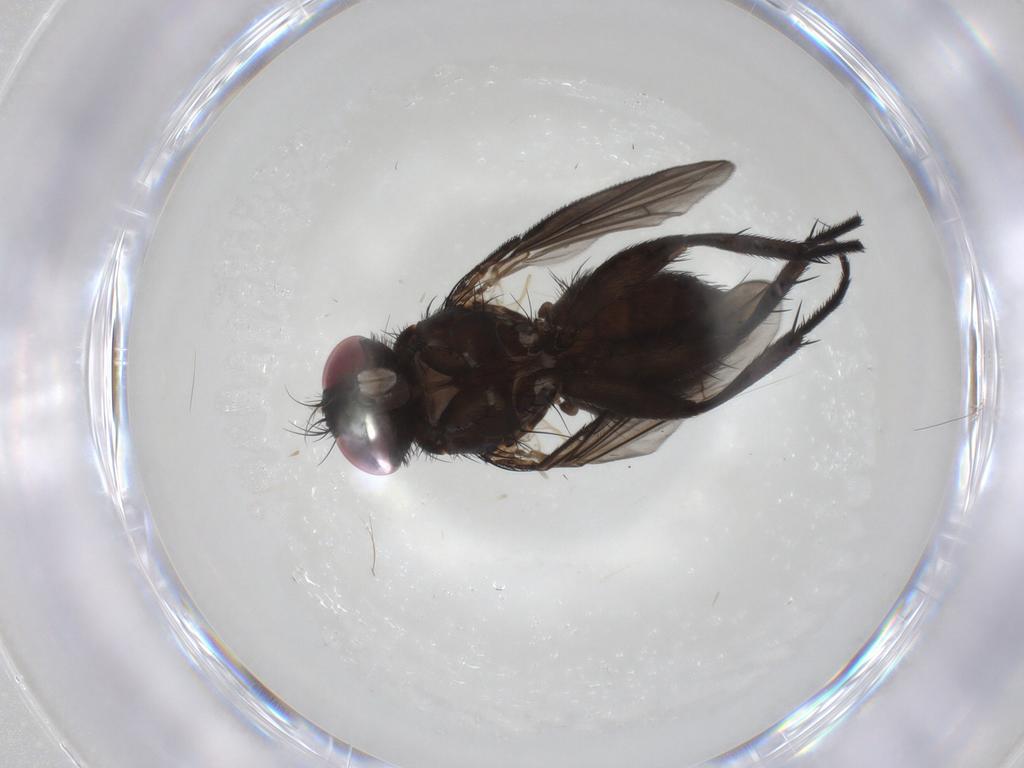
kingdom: Animalia
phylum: Arthropoda
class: Insecta
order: Diptera
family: Calliphoridae
